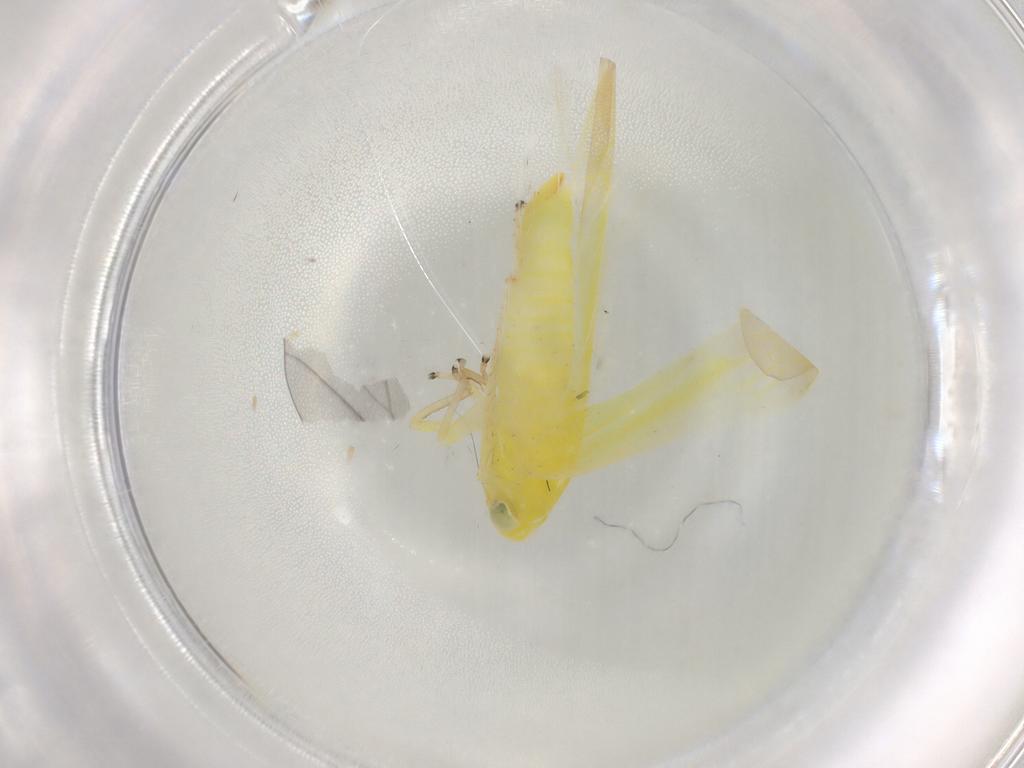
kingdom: Animalia
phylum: Arthropoda
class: Insecta
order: Hemiptera
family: Cicadellidae
